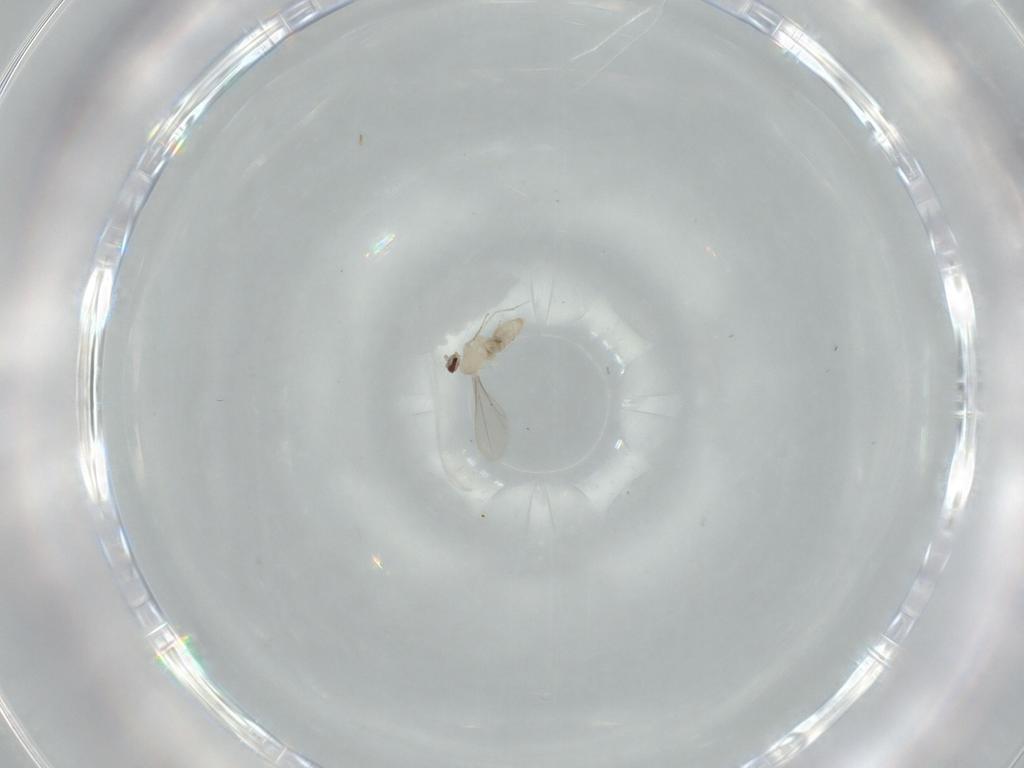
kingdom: Animalia
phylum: Arthropoda
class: Insecta
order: Diptera
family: Cecidomyiidae
